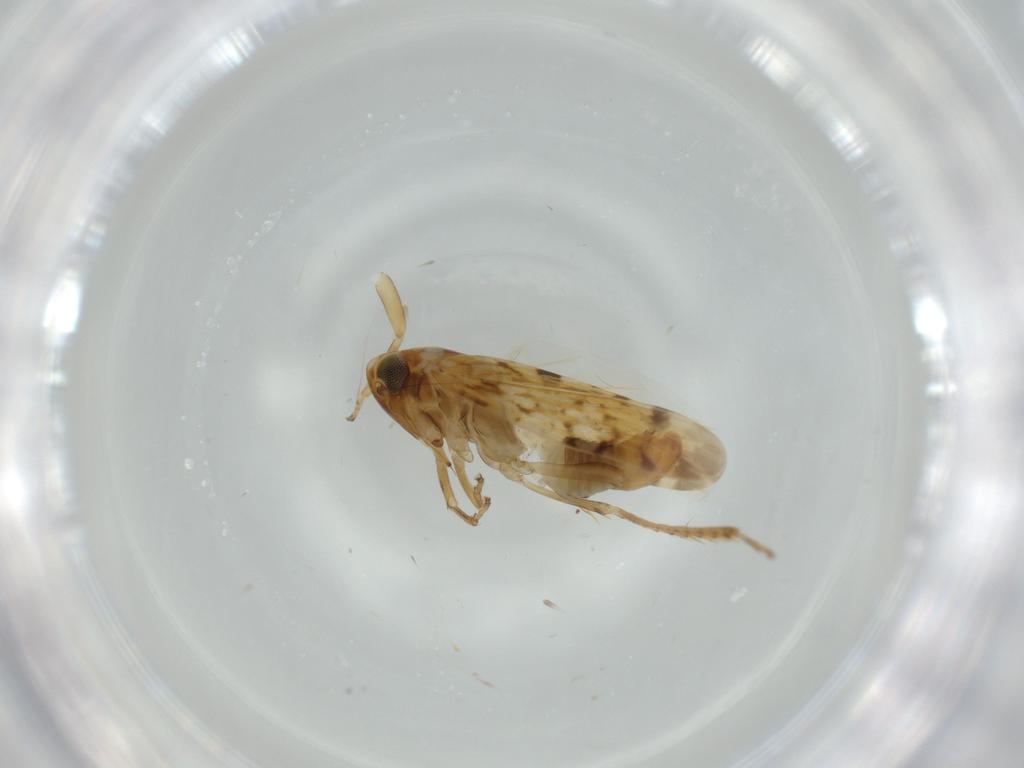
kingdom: Animalia
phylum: Arthropoda
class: Insecta
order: Hemiptera
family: Cicadellidae
